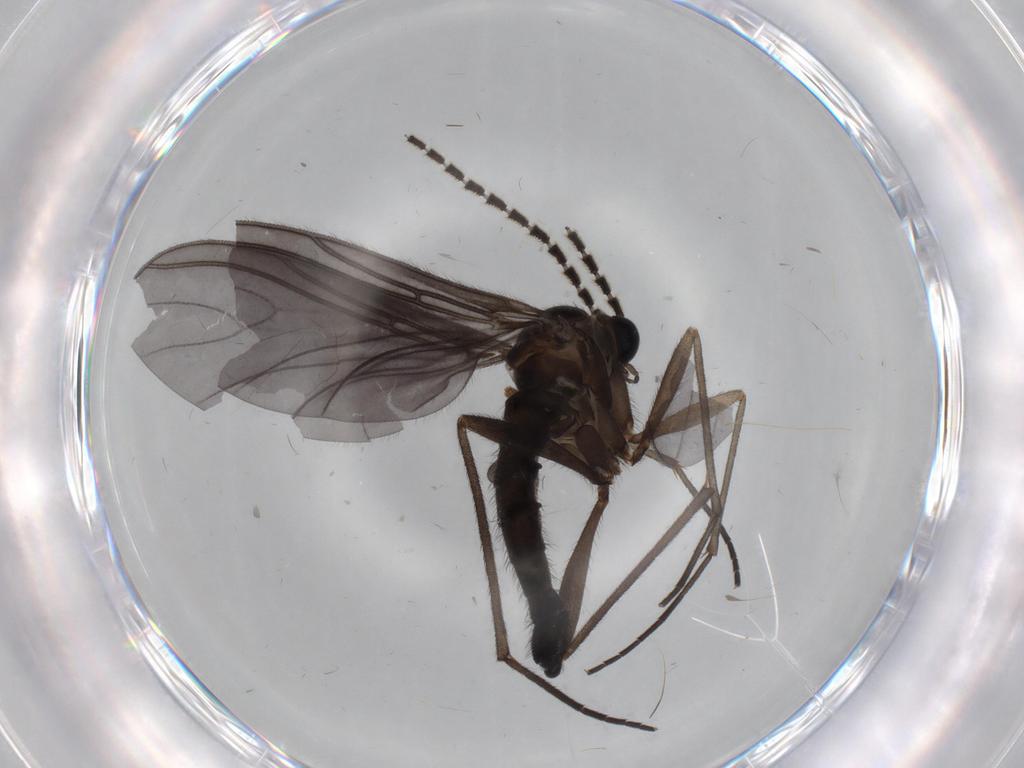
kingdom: Animalia
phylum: Arthropoda
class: Insecta
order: Diptera
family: Sciaridae
